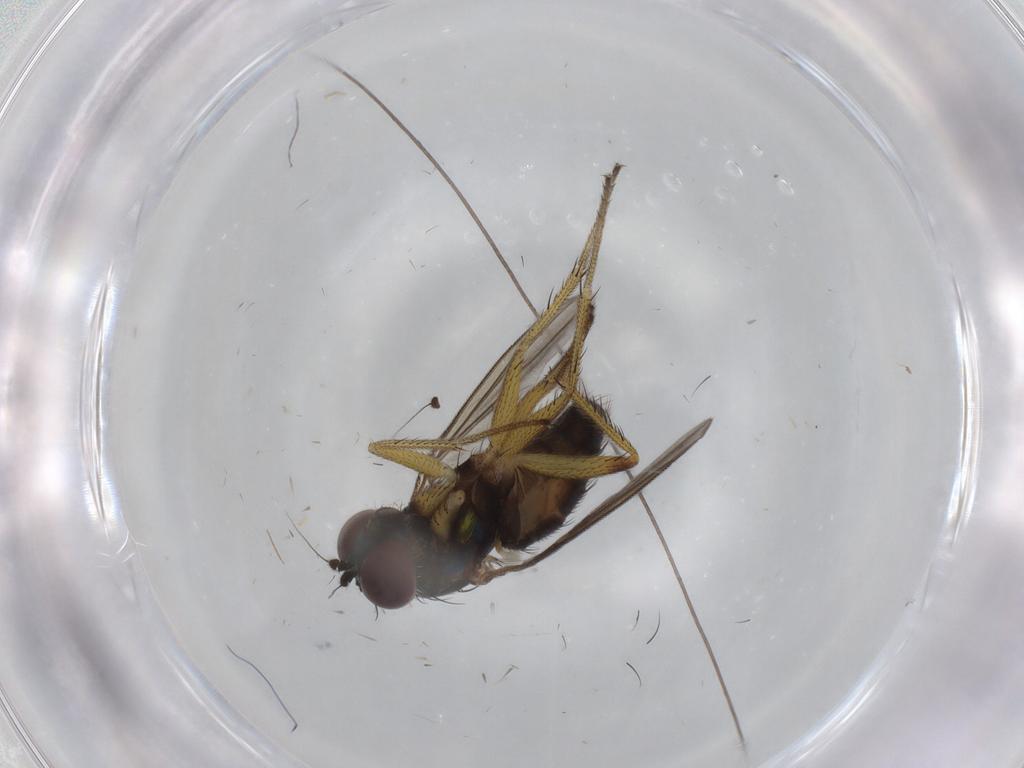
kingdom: Animalia
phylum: Arthropoda
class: Insecta
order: Diptera
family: Dolichopodidae
